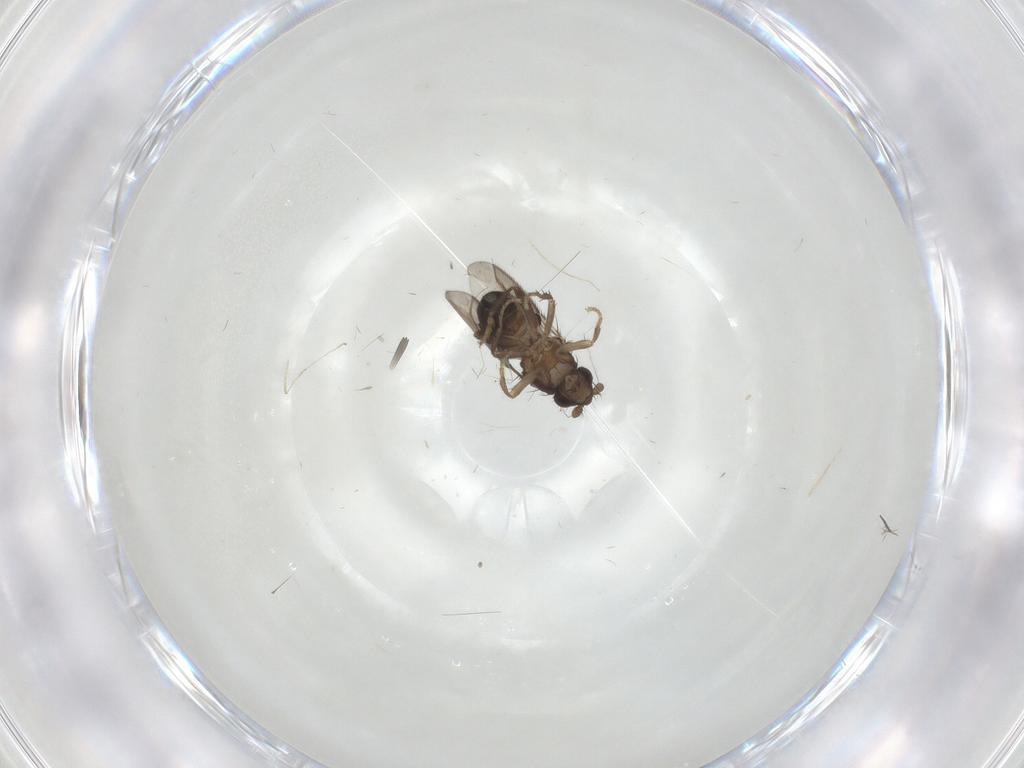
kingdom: Animalia
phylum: Arthropoda
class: Insecta
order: Diptera
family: Sphaeroceridae
